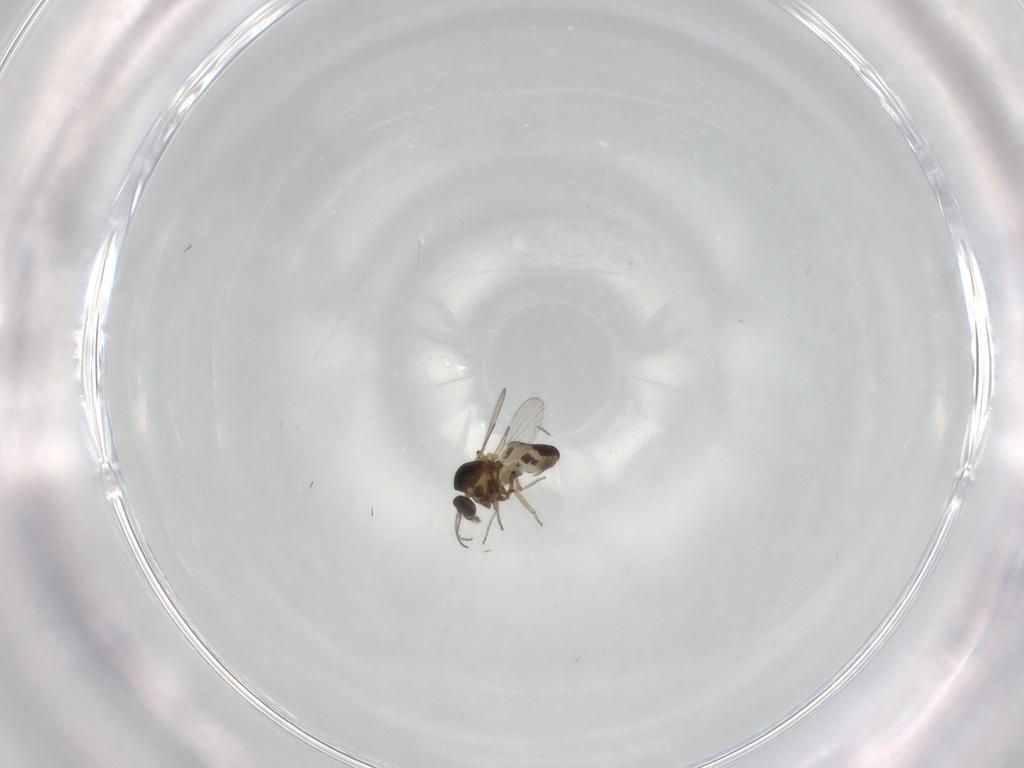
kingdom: Animalia
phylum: Arthropoda
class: Insecta
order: Diptera
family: Ceratopogonidae
